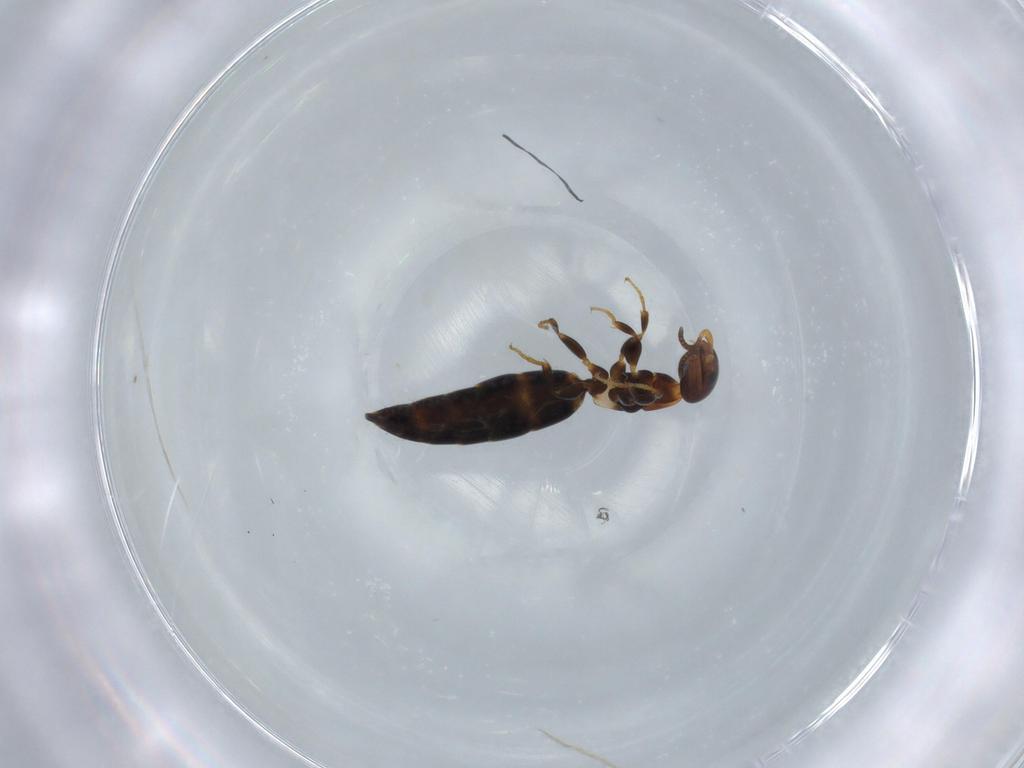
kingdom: Animalia
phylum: Arthropoda
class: Insecta
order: Hymenoptera
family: Bethylidae
